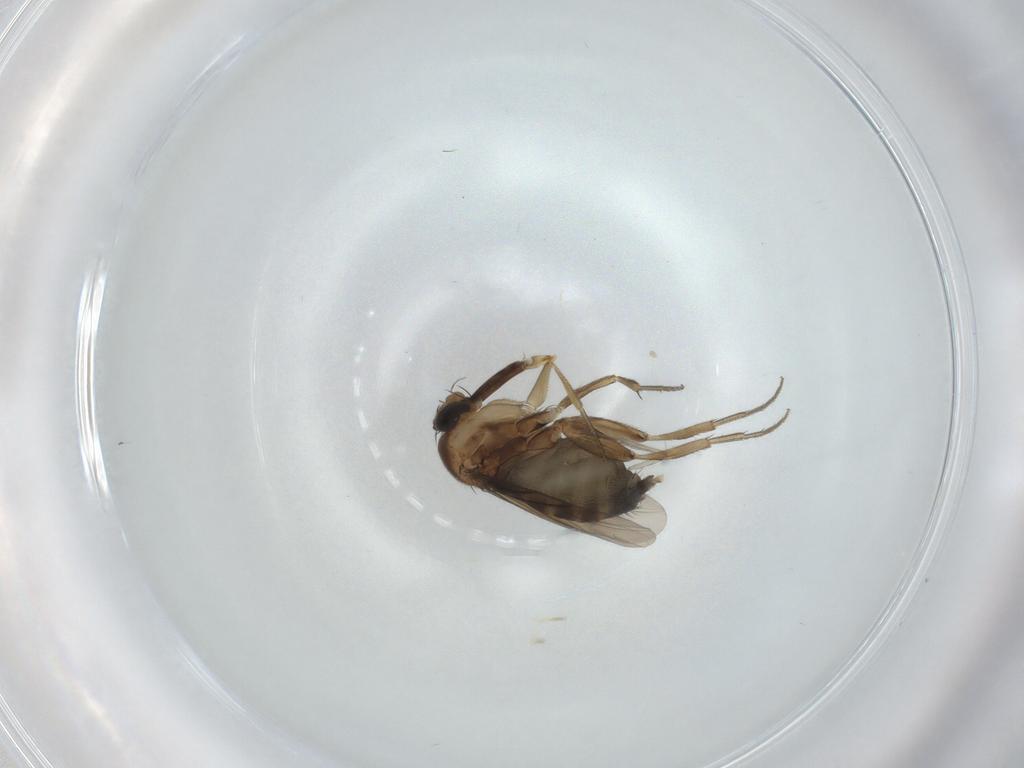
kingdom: Animalia
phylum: Arthropoda
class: Insecta
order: Diptera
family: Phoridae
